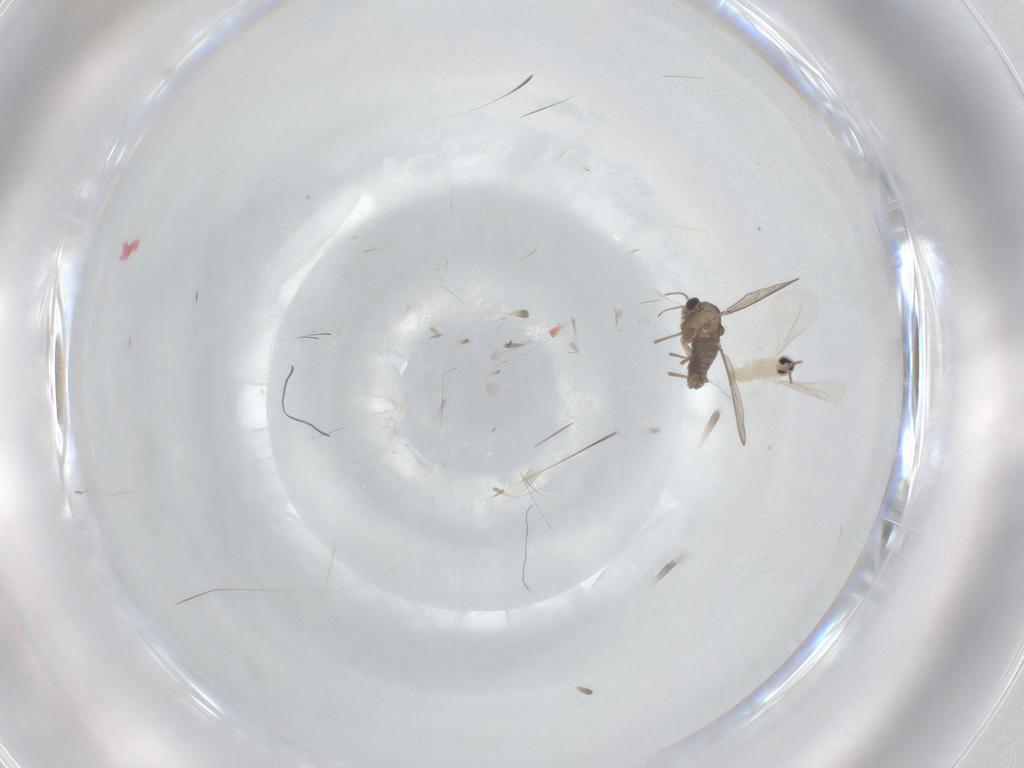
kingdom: Animalia
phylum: Arthropoda
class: Insecta
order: Diptera
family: Cecidomyiidae
